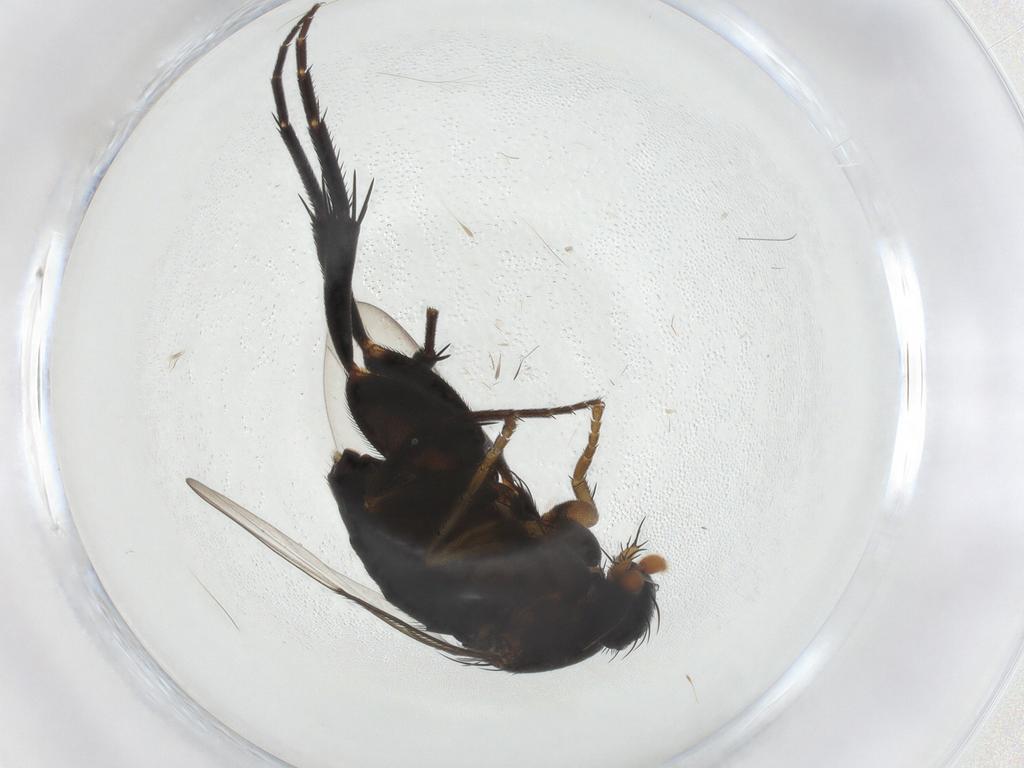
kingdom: Animalia
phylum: Arthropoda
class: Insecta
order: Diptera
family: Phoridae
